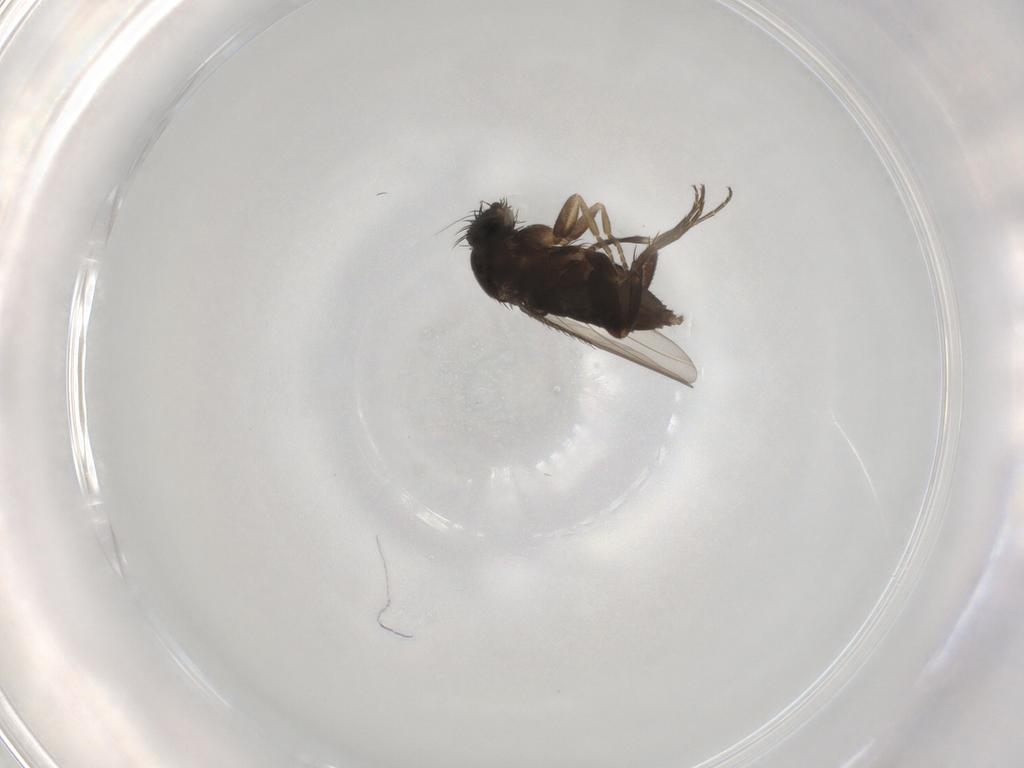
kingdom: Animalia
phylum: Arthropoda
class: Insecta
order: Diptera
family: Phoridae
